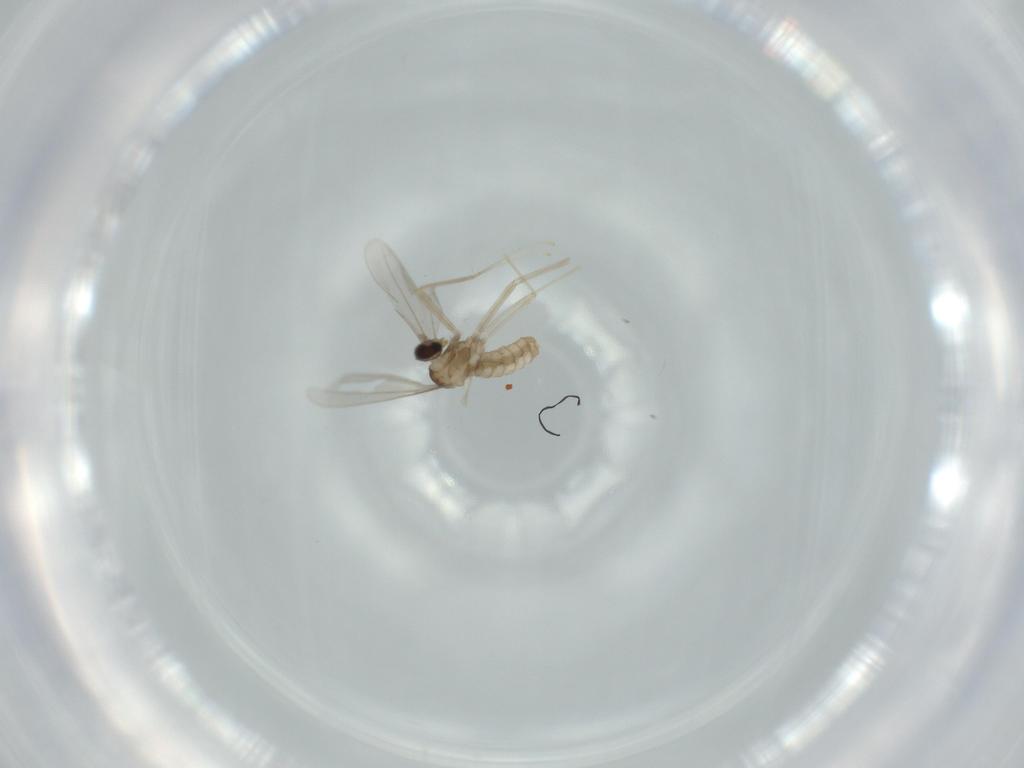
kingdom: Animalia
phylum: Arthropoda
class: Insecta
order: Diptera
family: Cecidomyiidae
